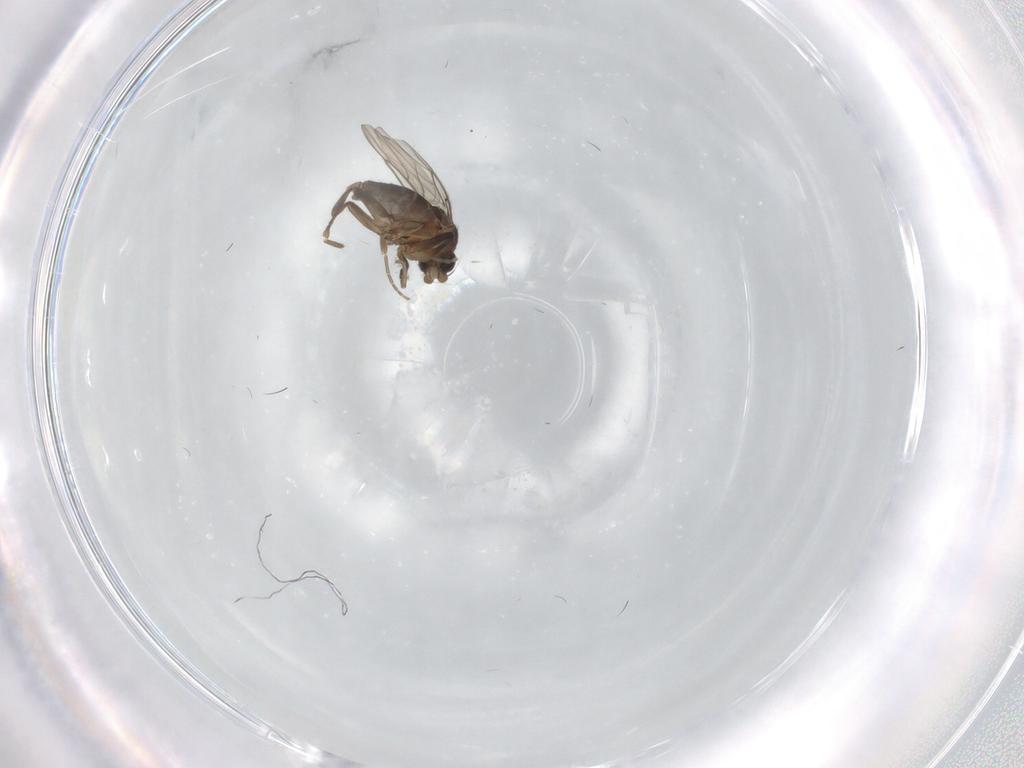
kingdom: Animalia
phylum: Arthropoda
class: Insecta
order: Diptera
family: Phoridae
